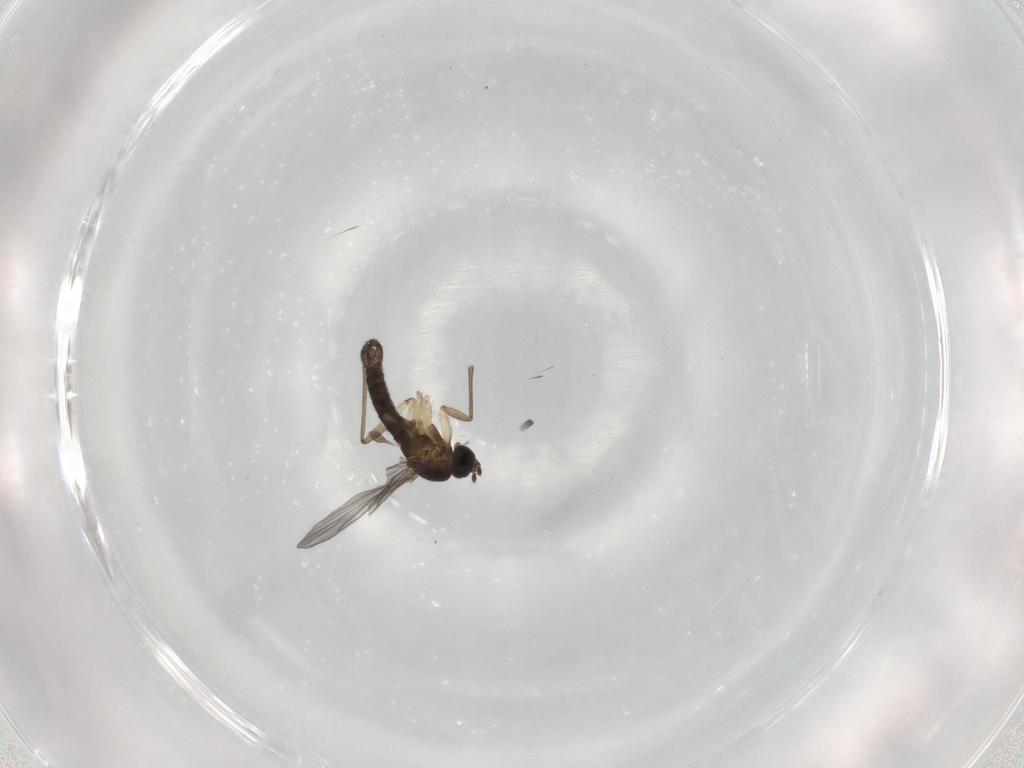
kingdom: Animalia
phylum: Arthropoda
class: Insecta
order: Diptera
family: Sciaridae
